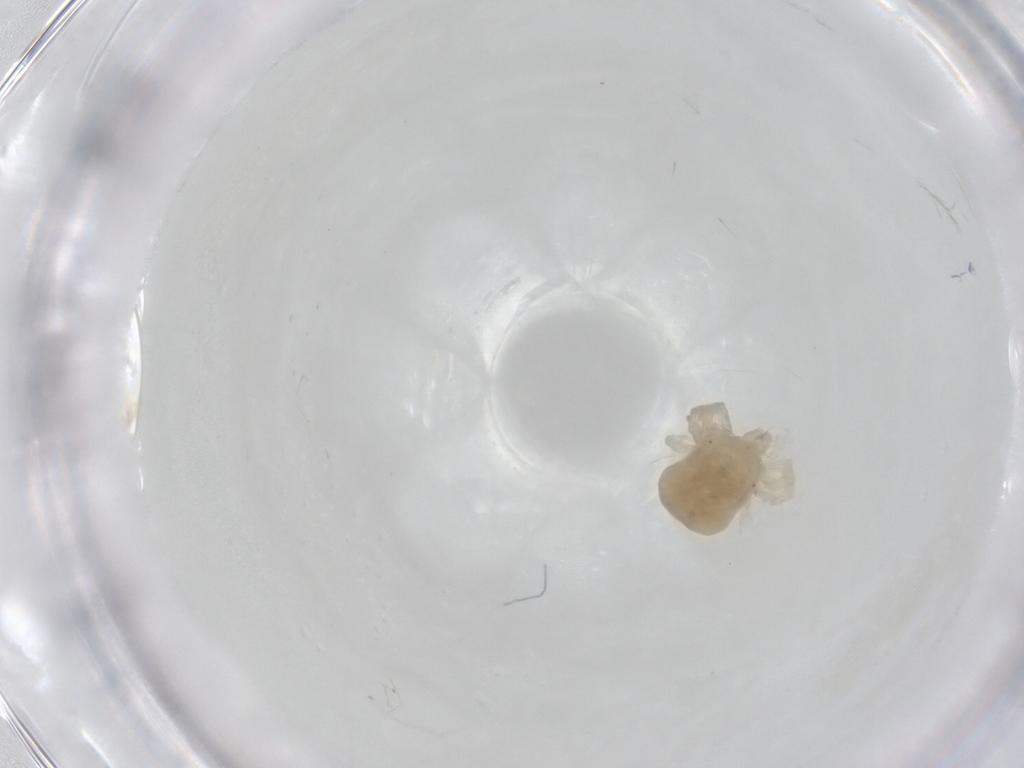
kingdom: Animalia
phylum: Arthropoda
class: Arachnida
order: Trombidiformes
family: Anystidae
